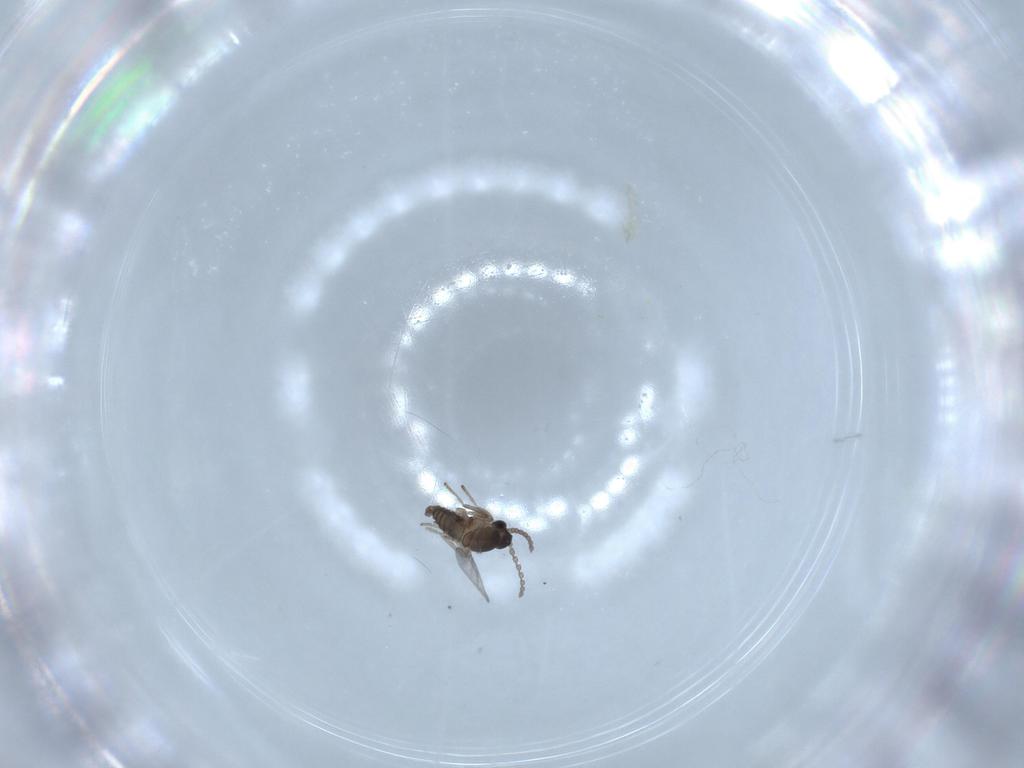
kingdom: Animalia
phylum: Arthropoda
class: Insecta
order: Diptera
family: Cecidomyiidae
